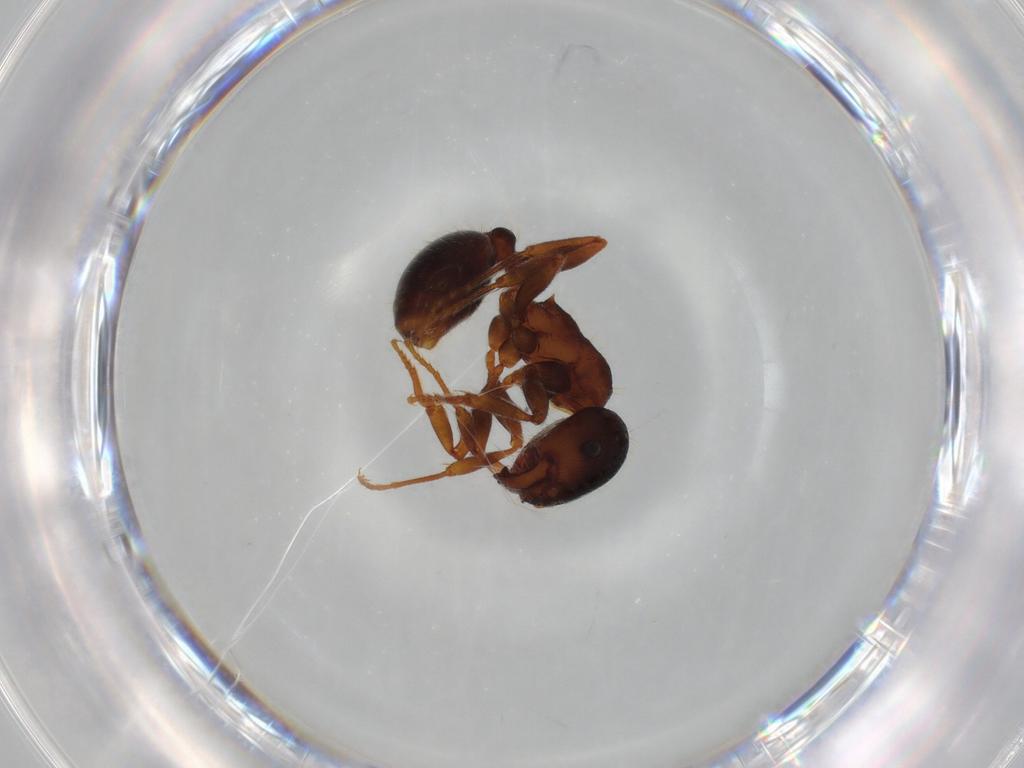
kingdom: Animalia
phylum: Arthropoda
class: Insecta
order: Hymenoptera
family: Formicidae
